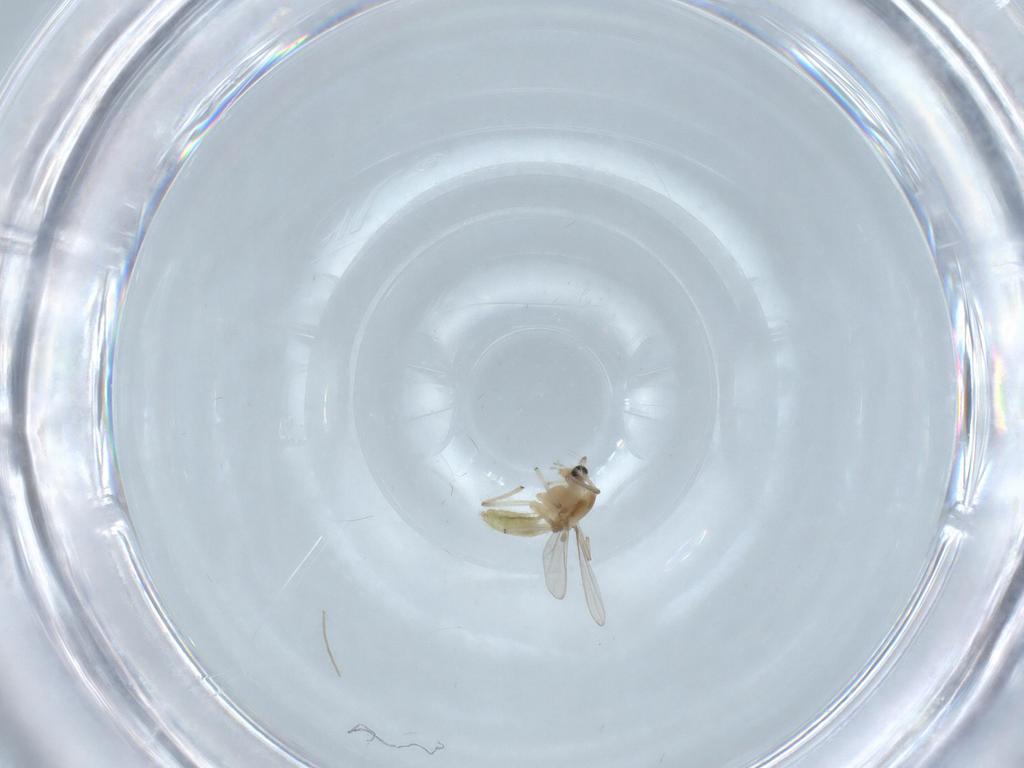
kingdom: Animalia
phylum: Arthropoda
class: Insecta
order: Diptera
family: Chironomidae
